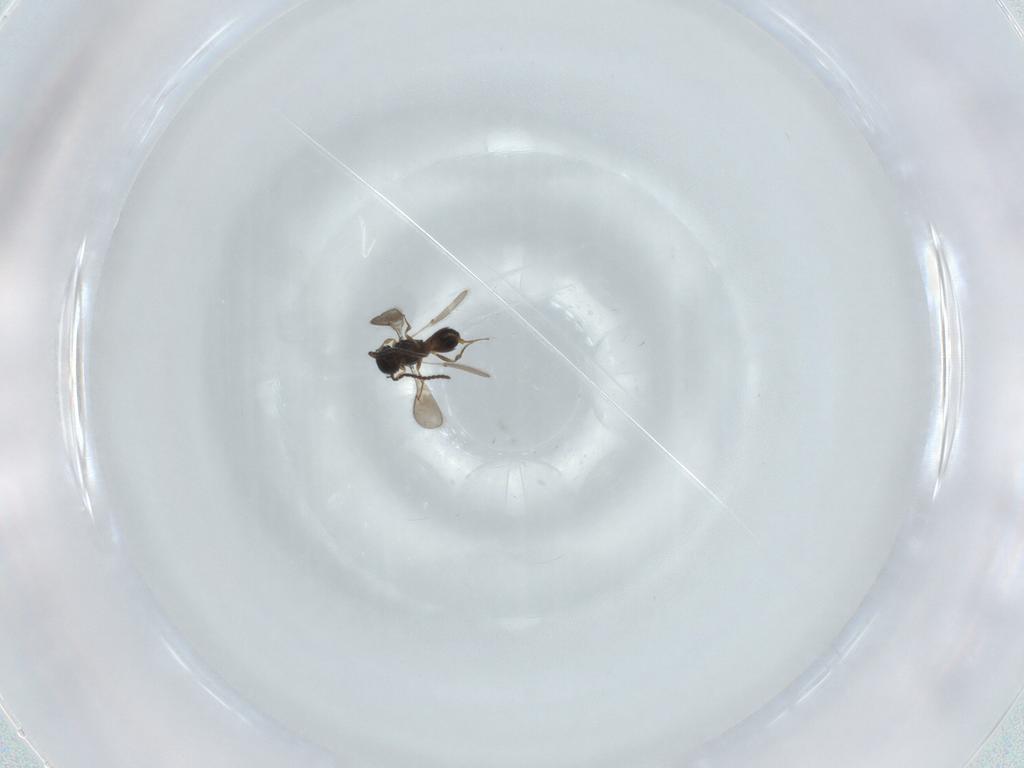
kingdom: Animalia
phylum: Arthropoda
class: Insecta
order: Hymenoptera
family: Scelionidae
